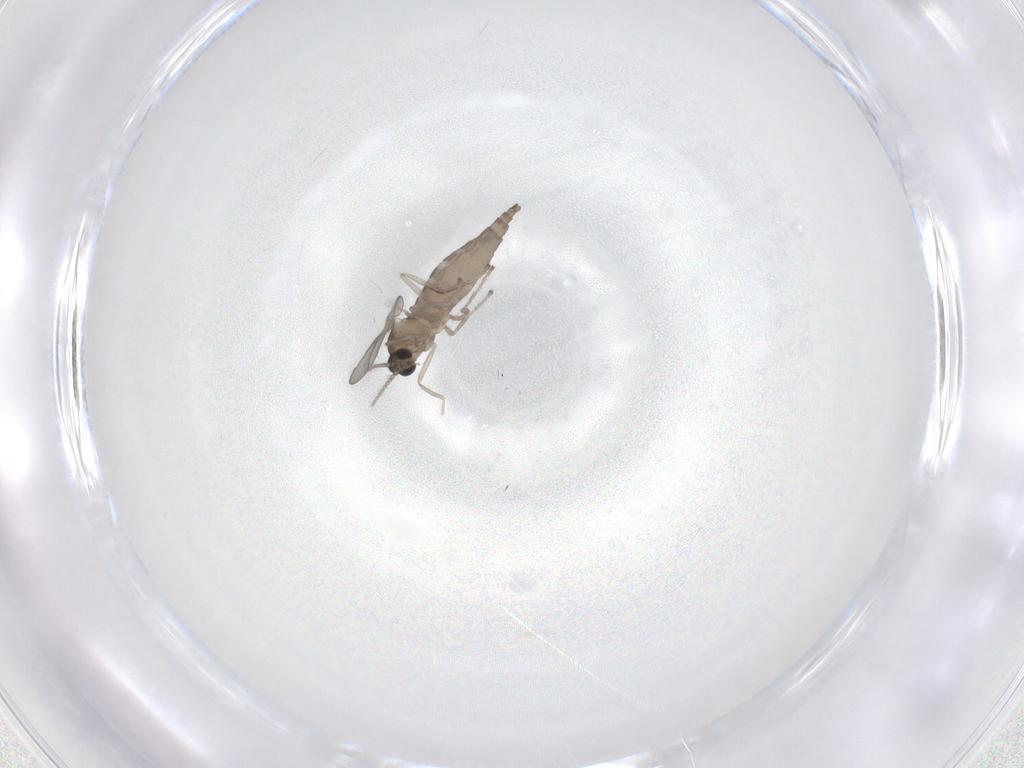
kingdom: Animalia
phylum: Arthropoda
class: Insecta
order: Diptera
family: Cecidomyiidae
